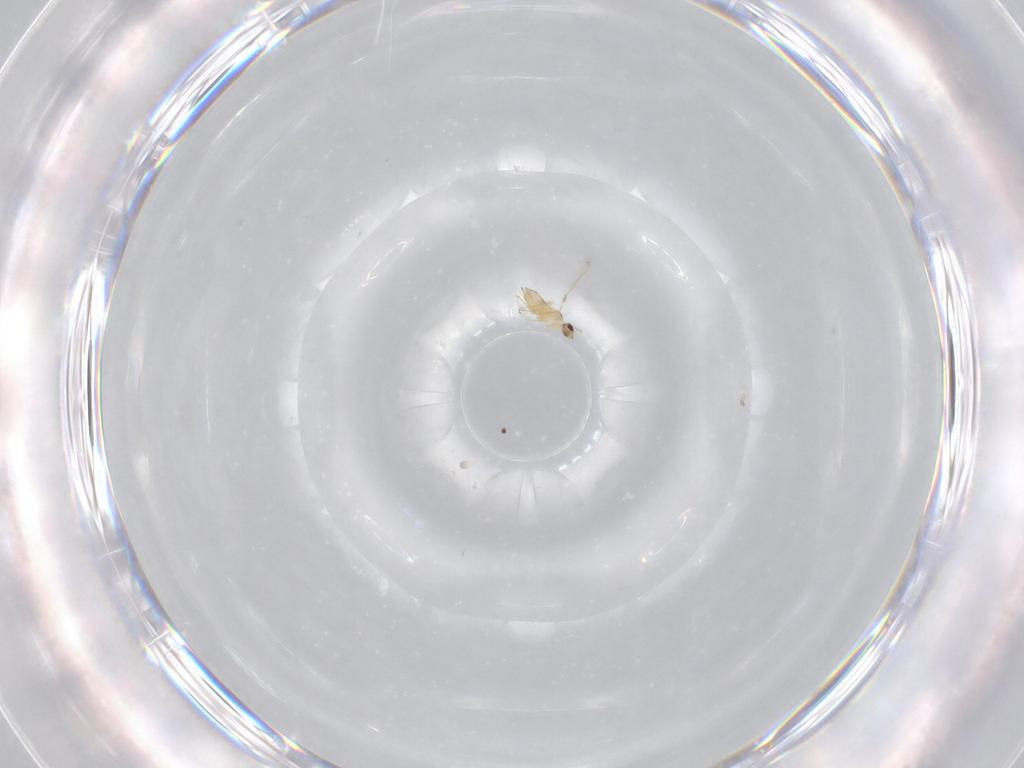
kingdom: Animalia
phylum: Arthropoda
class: Insecta
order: Hymenoptera
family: Mymaridae
